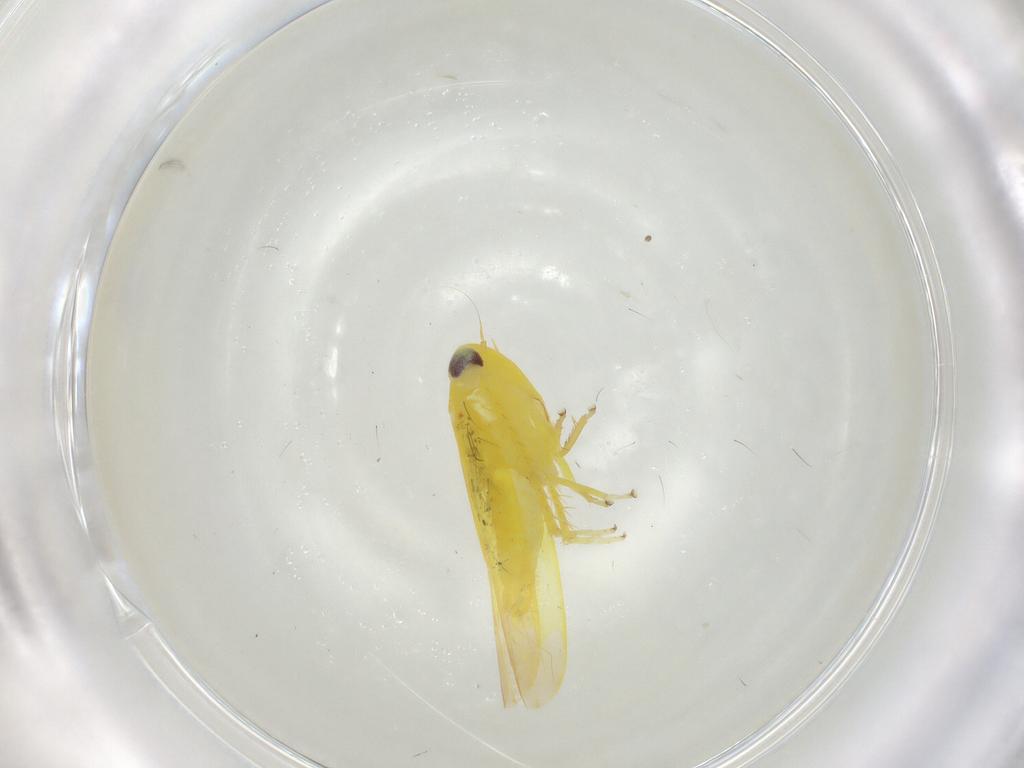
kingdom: Animalia
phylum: Arthropoda
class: Insecta
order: Hemiptera
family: Cicadellidae
